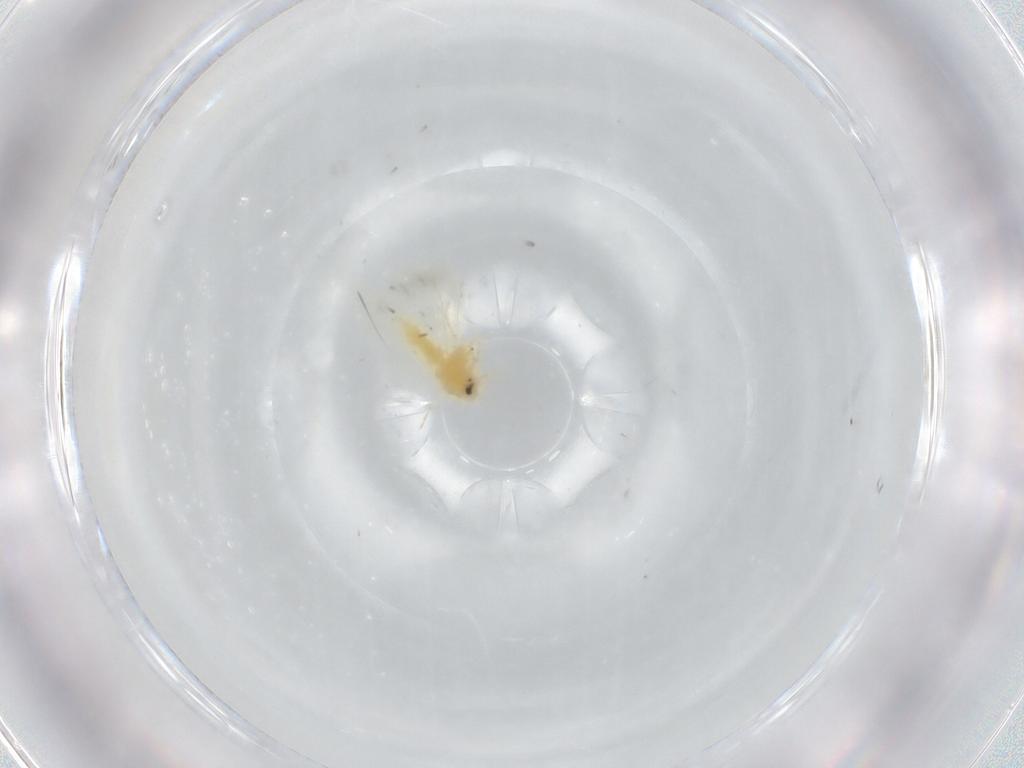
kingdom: Animalia
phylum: Arthropoda
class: Insecta
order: Hemiptera
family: Aleyrodidae
